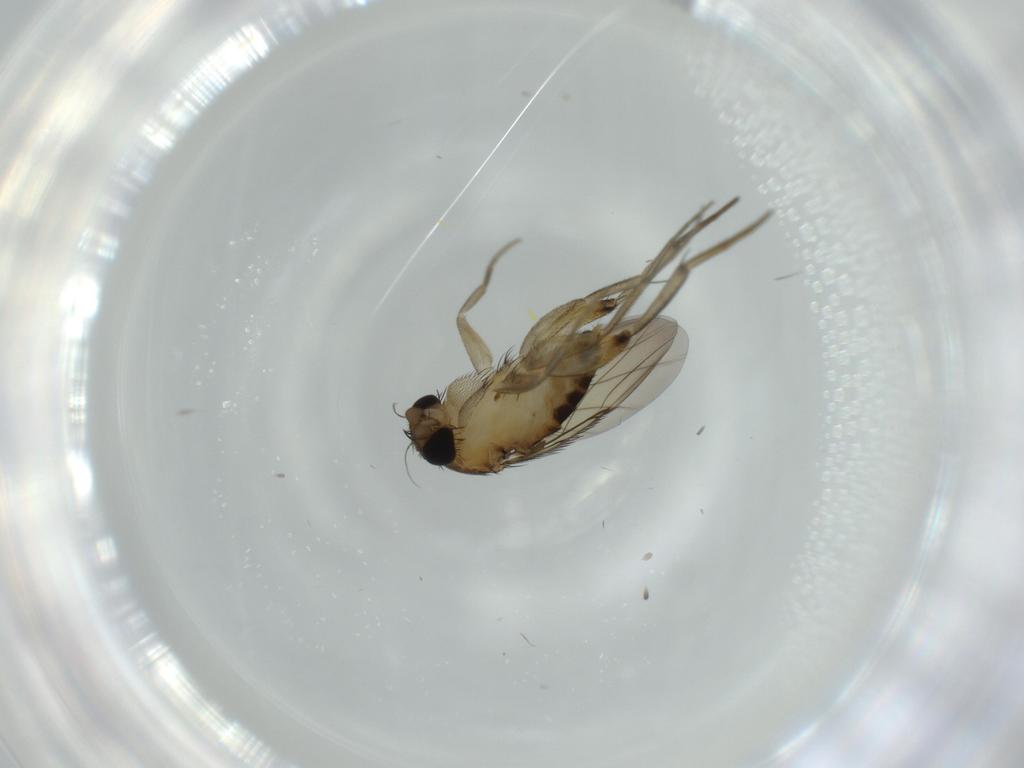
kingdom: Animalia
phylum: Arthropoda
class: Insecta
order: Diptera
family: Phoridae
